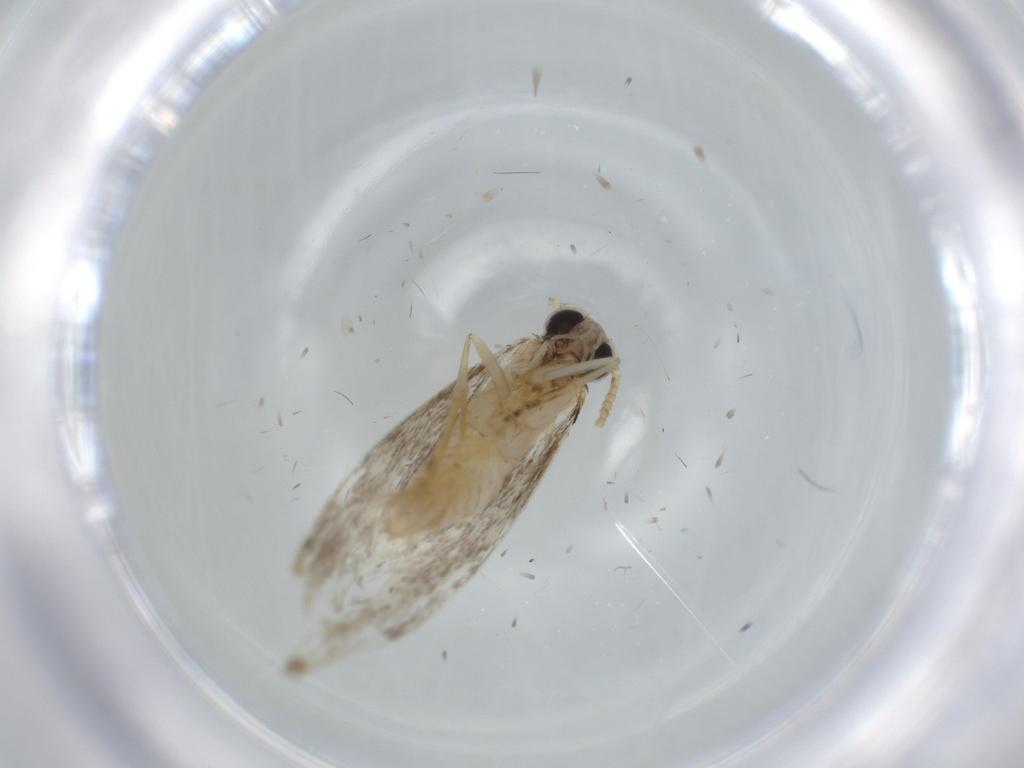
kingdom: Animalia
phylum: Arthropoda
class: Insecta
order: Lepidoptera
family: Tineidae
